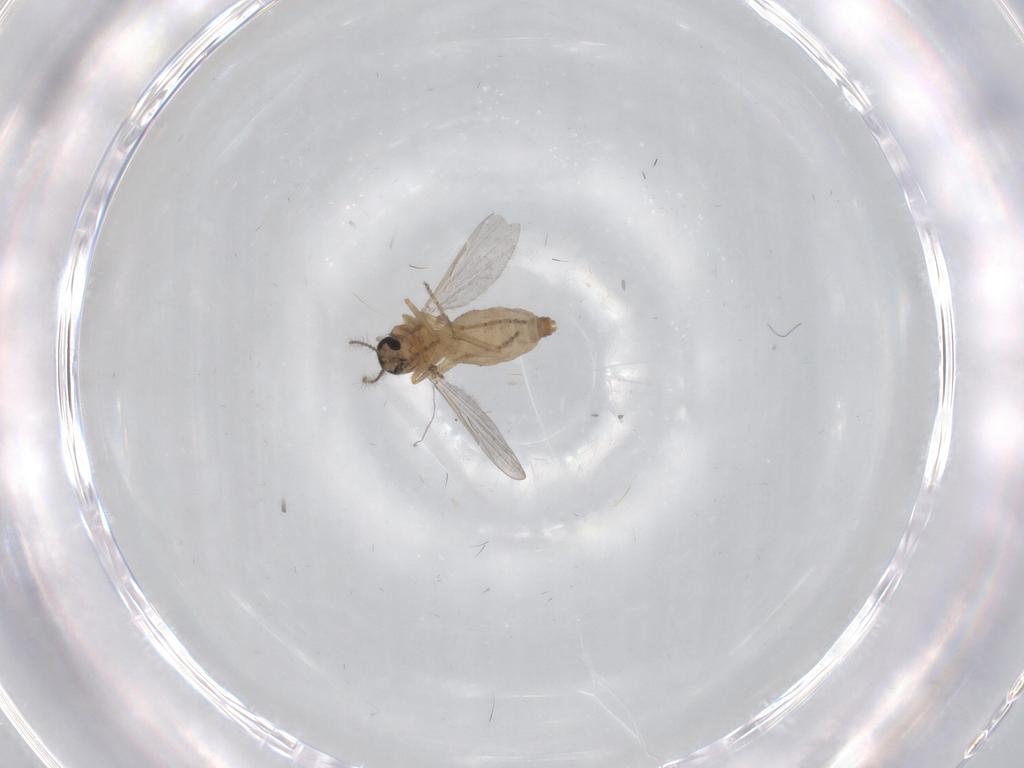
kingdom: Animalia
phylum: Arthropoda
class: Insecta
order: Diptera
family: Ceratopogonidae
